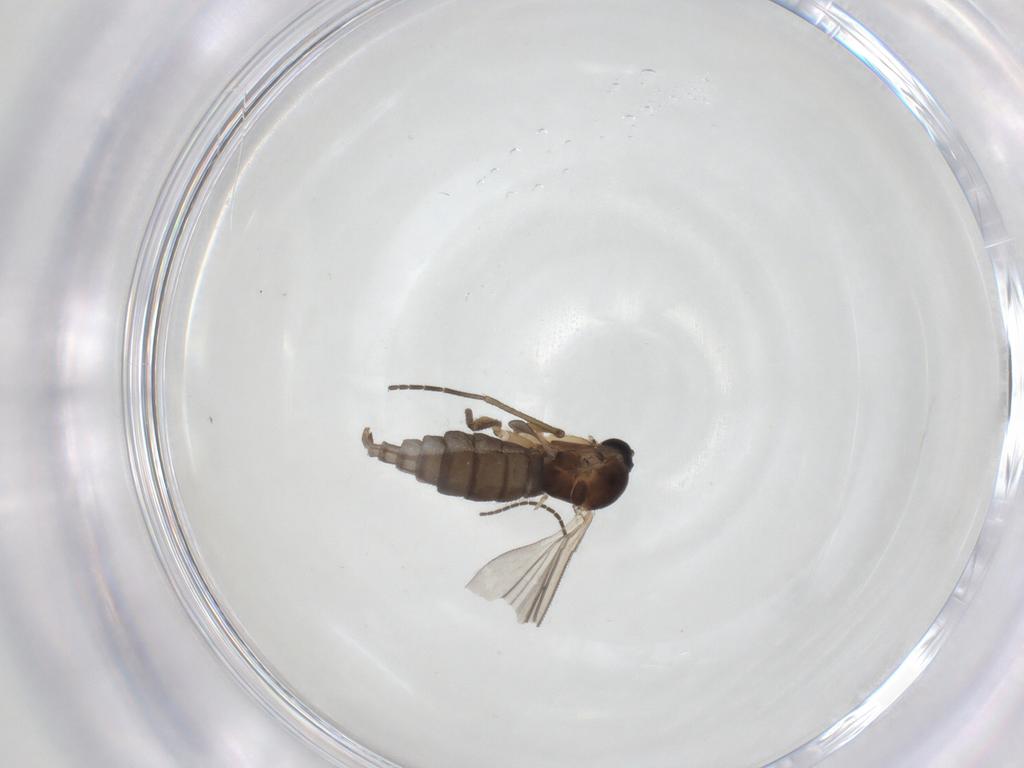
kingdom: Animalia
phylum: Arthropoda
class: Insecta
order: Diptera
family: Sciaridae
